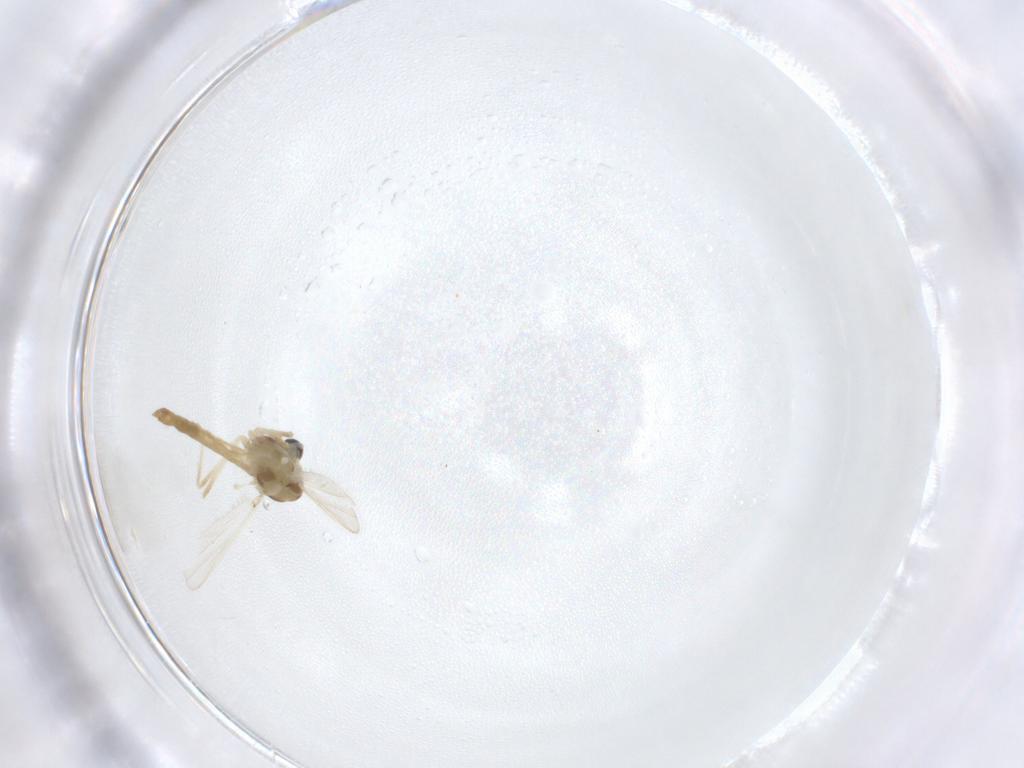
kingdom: Animalia
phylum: Arthropoda
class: Insecta
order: Diptera
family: Chironomidae
